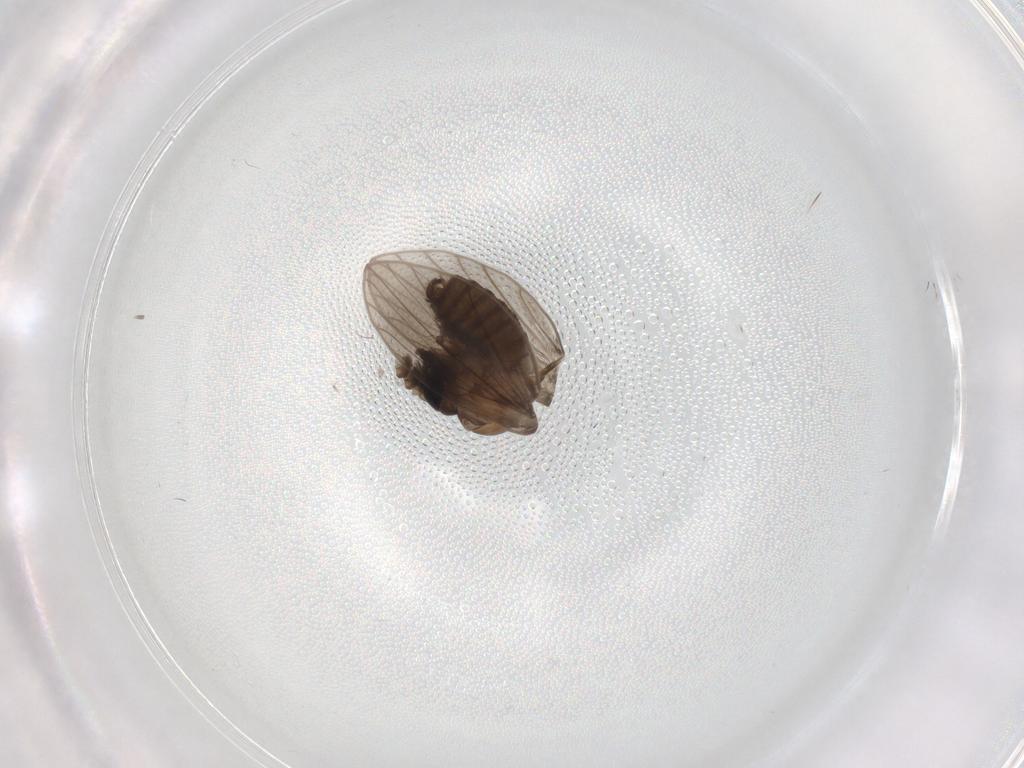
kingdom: Animalia
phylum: Arthropoda
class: Insecta
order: Diptera
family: Psychodidae
